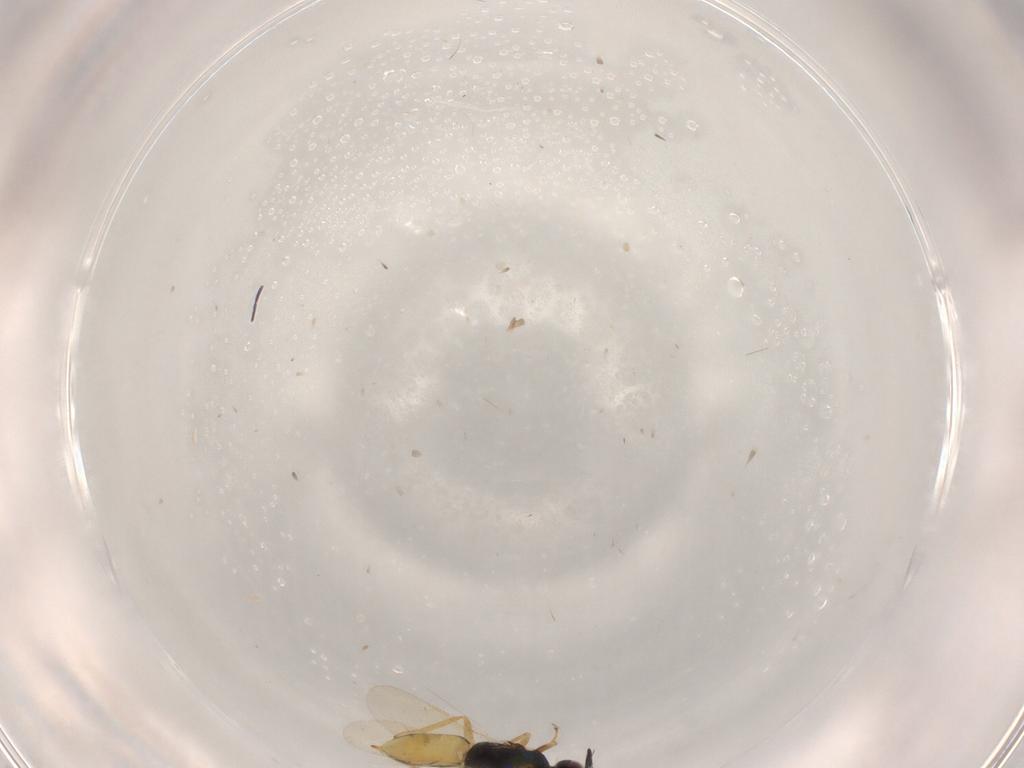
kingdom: Animalia
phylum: Arthropoda
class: Insecta
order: Hymenoptera
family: Encyrtidae
